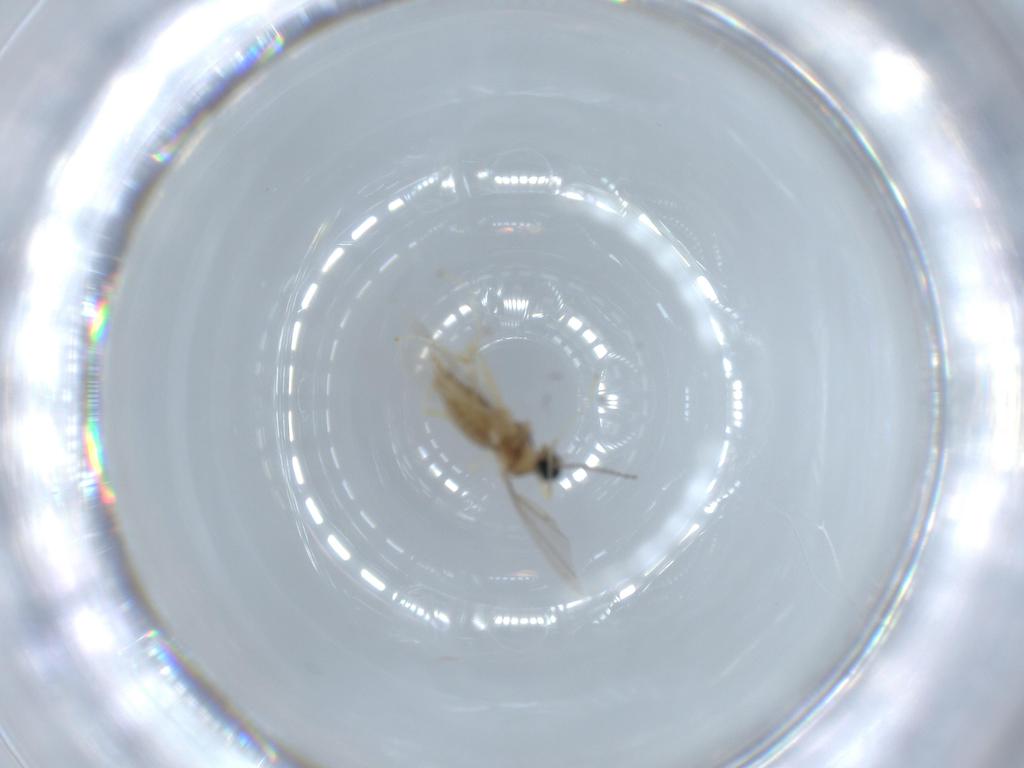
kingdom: Animalia
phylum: Arthropoda
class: Insecta
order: Diptera
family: Cecidomyiidae
